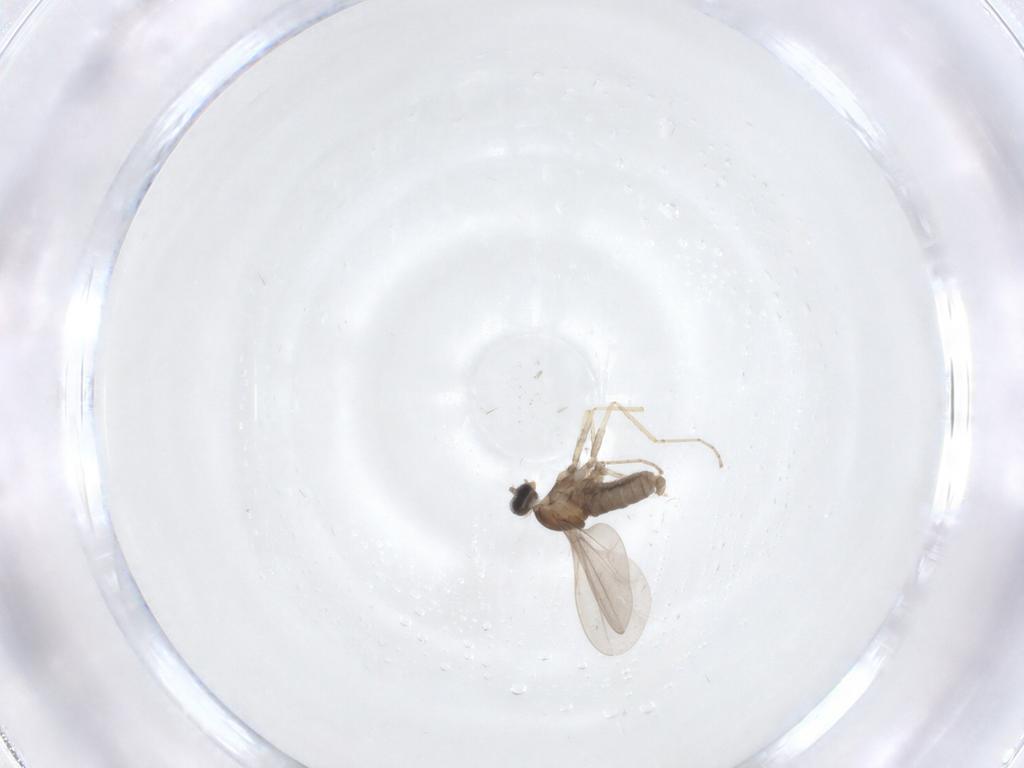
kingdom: Animalia
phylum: Arthropoda
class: Insecta
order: Diptera
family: Cecidomyiidae
